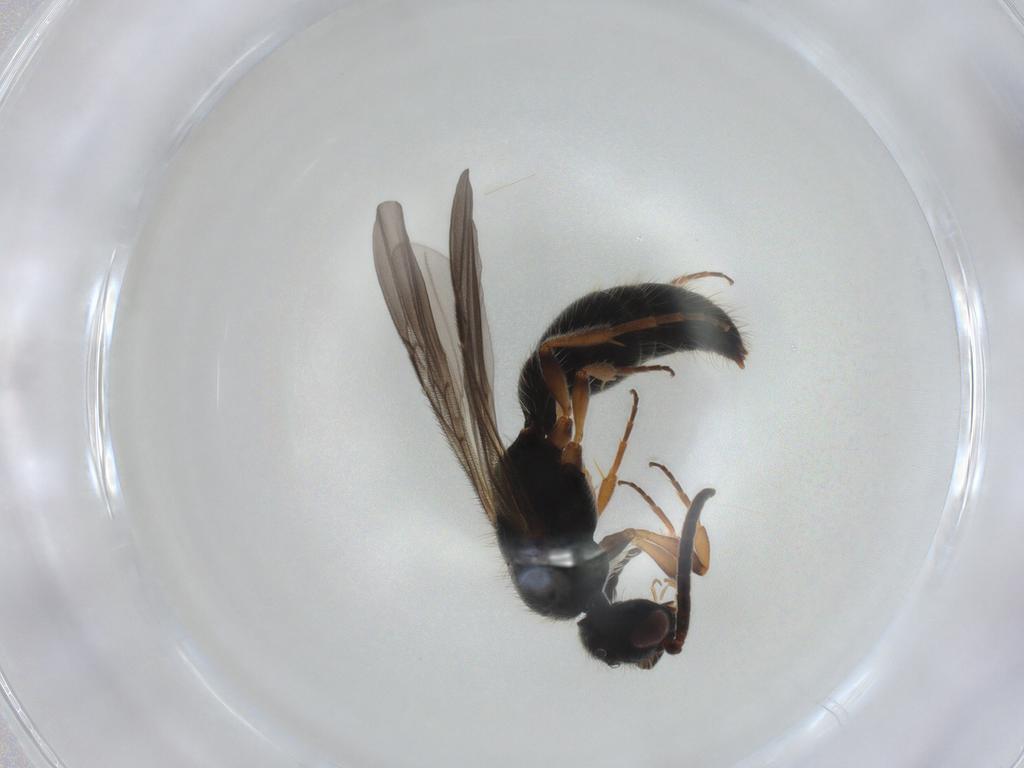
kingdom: Animalia
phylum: Arthropoda
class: Insecta
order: Hymenoptera
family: Mutillidae
